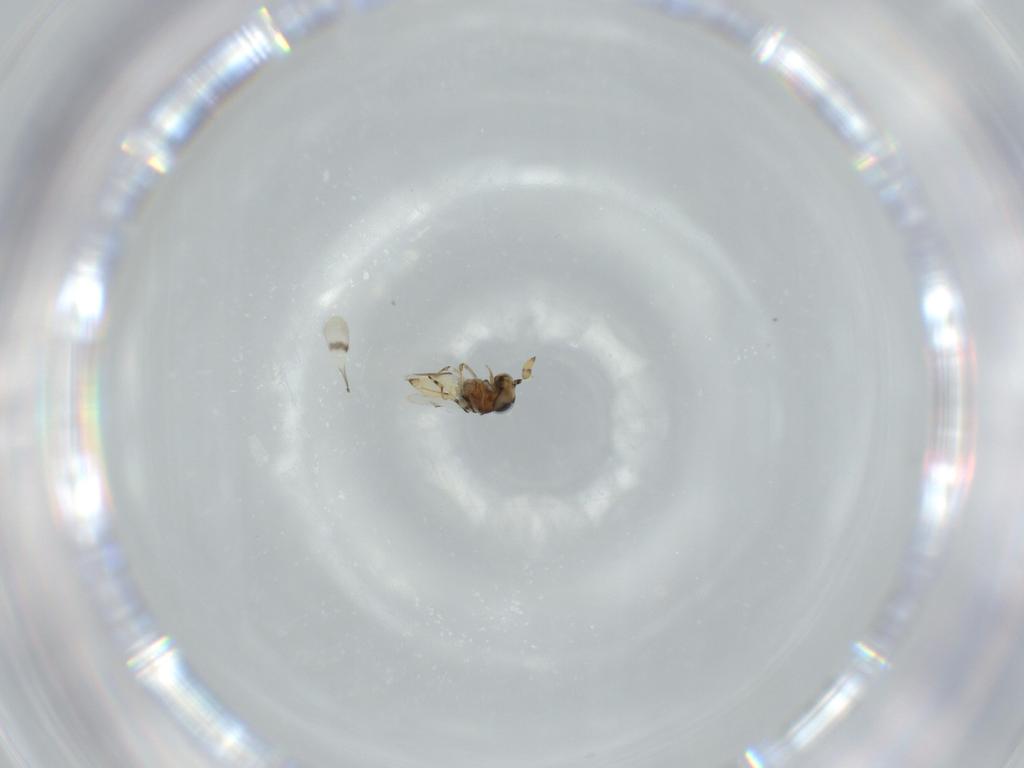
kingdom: Animalia
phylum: Arthropoda
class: Insecta
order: Hymenoptera
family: Scelionidae
